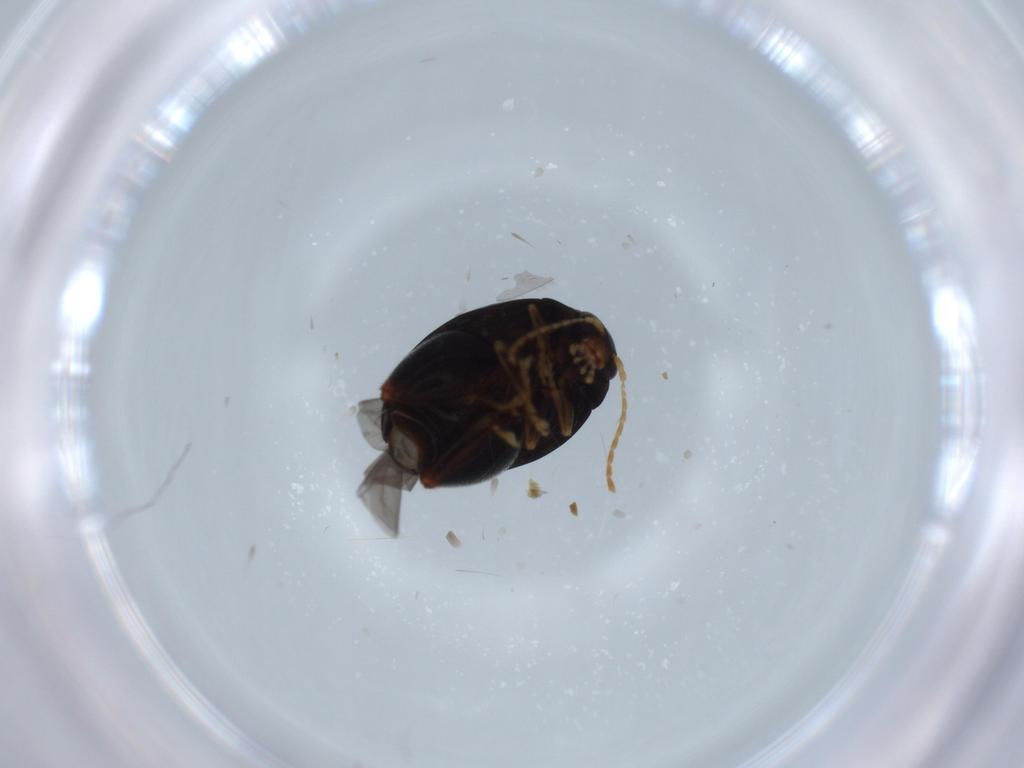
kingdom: Animalia
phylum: Arthropoda
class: Insecta
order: Coleoptera
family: Chrysomelidae
